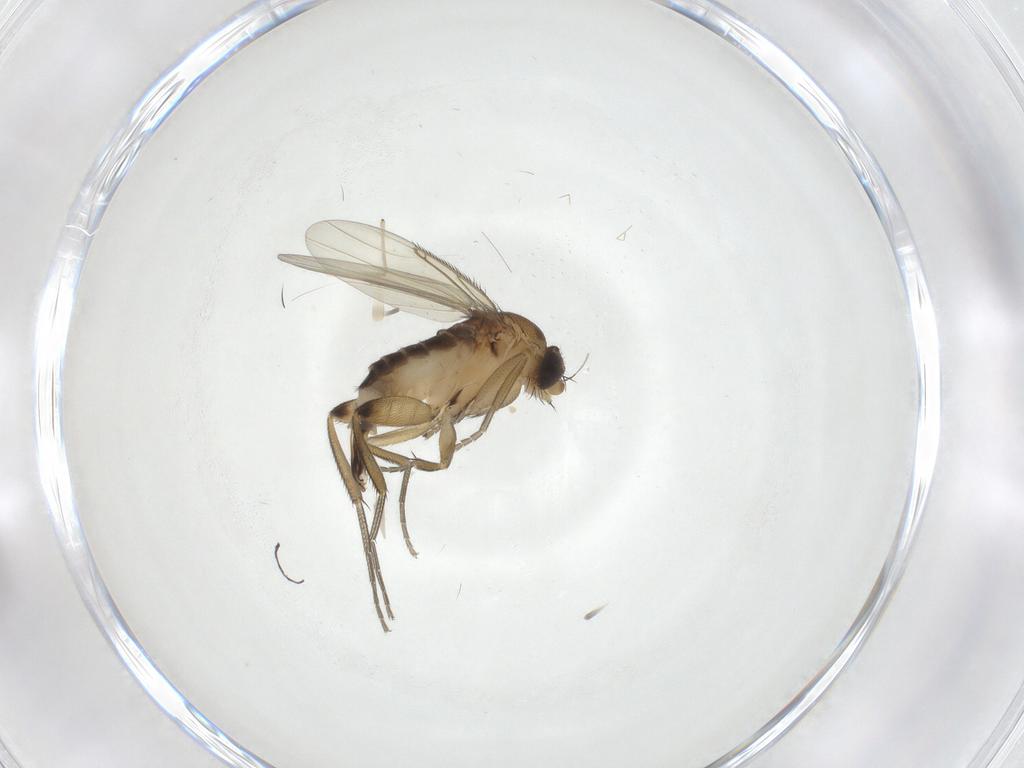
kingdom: Animalia
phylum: Arthropoda
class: Insecta
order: Diptera
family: Phoridae
